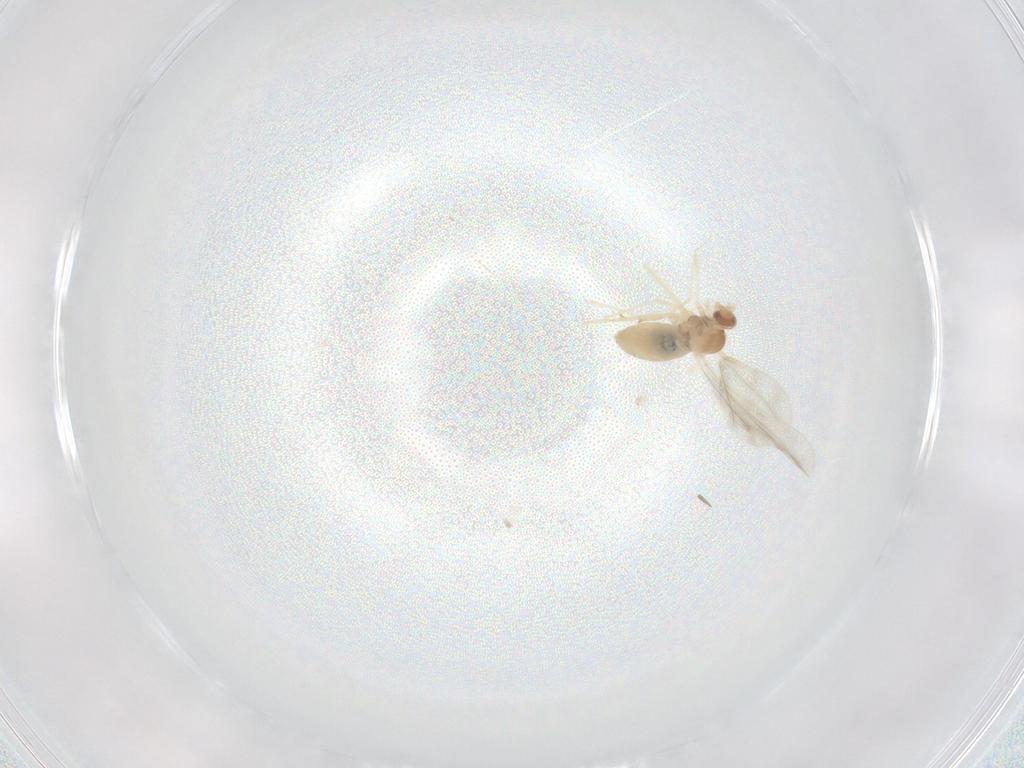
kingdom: Animalia
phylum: Arthropoda
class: Insecta
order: Diptera
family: Cecidomyiidae
